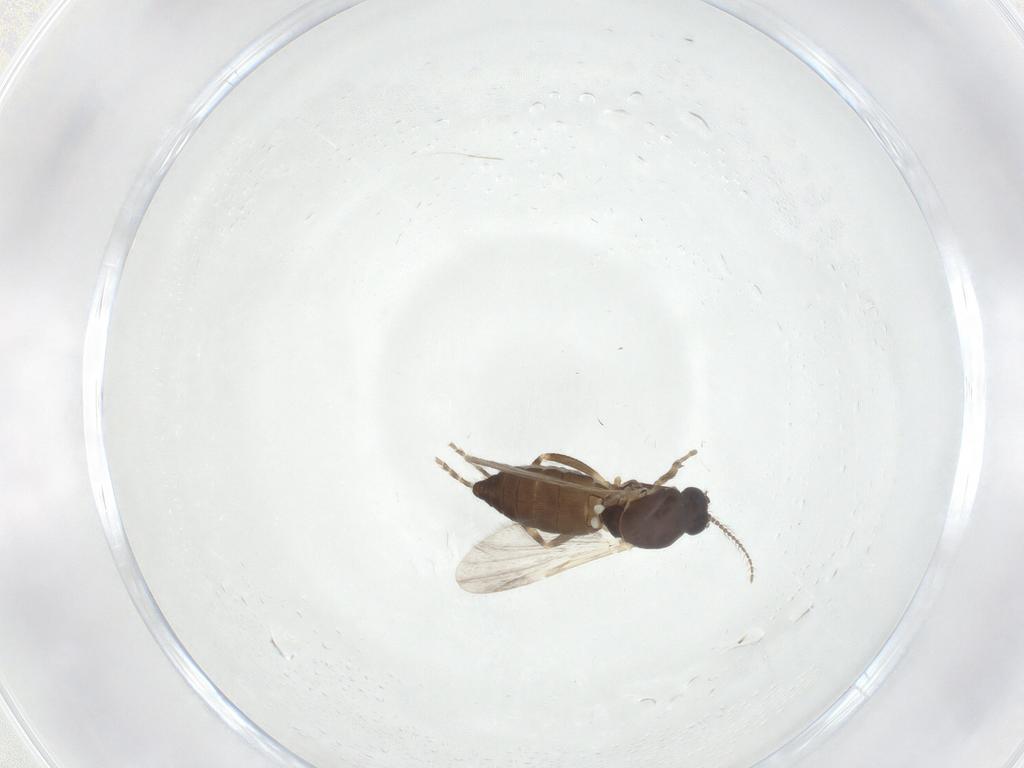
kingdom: Animalia
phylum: Arthropoda
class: Insecta
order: Diptera
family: Ceratopogonidae
